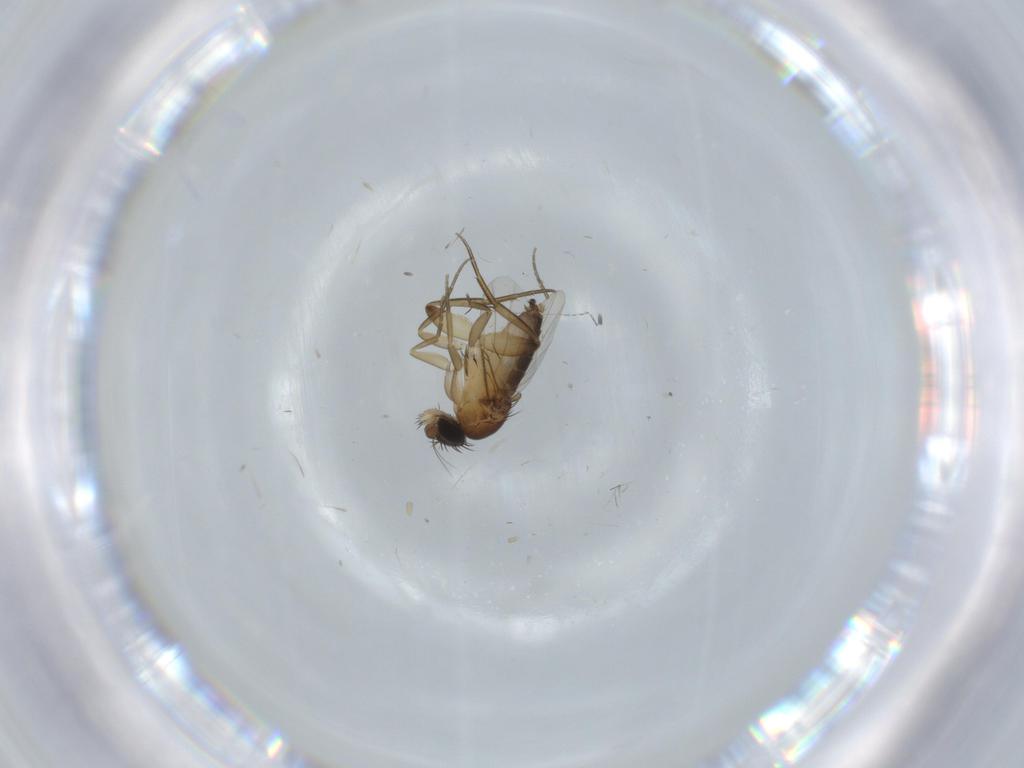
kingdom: Animalia
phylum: Arthropoda
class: Insecta
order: Diptera
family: Phoridae
